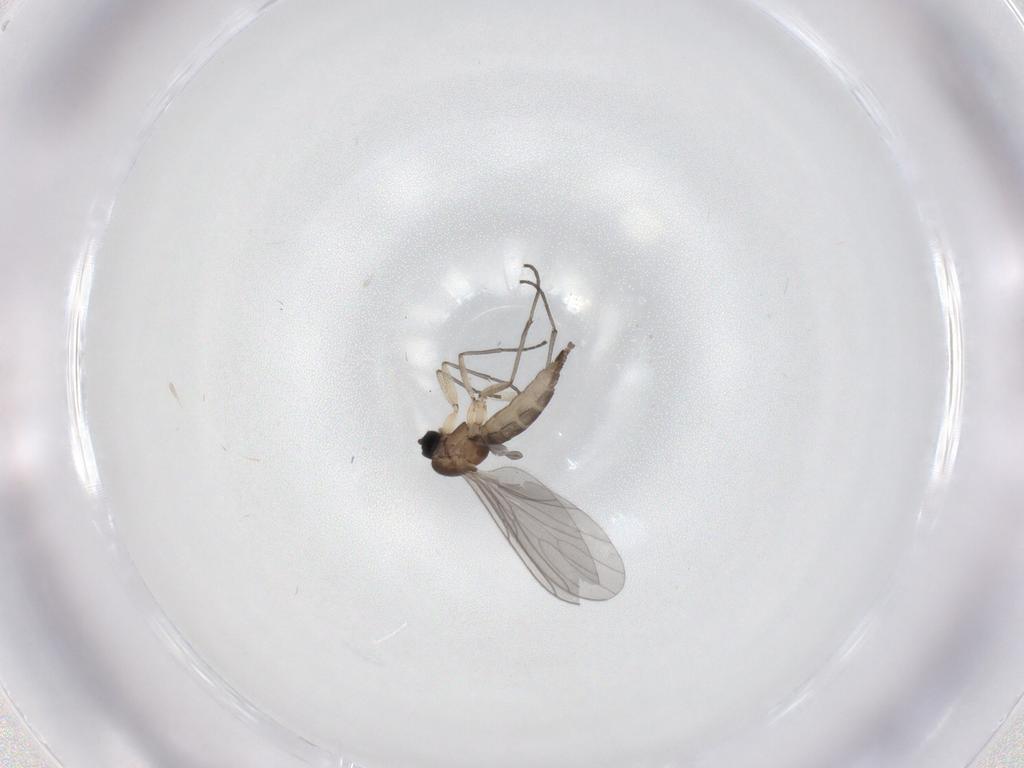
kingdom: Animalia
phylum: Arthropoda
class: Insecta
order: Diptera
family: Sciaridae
